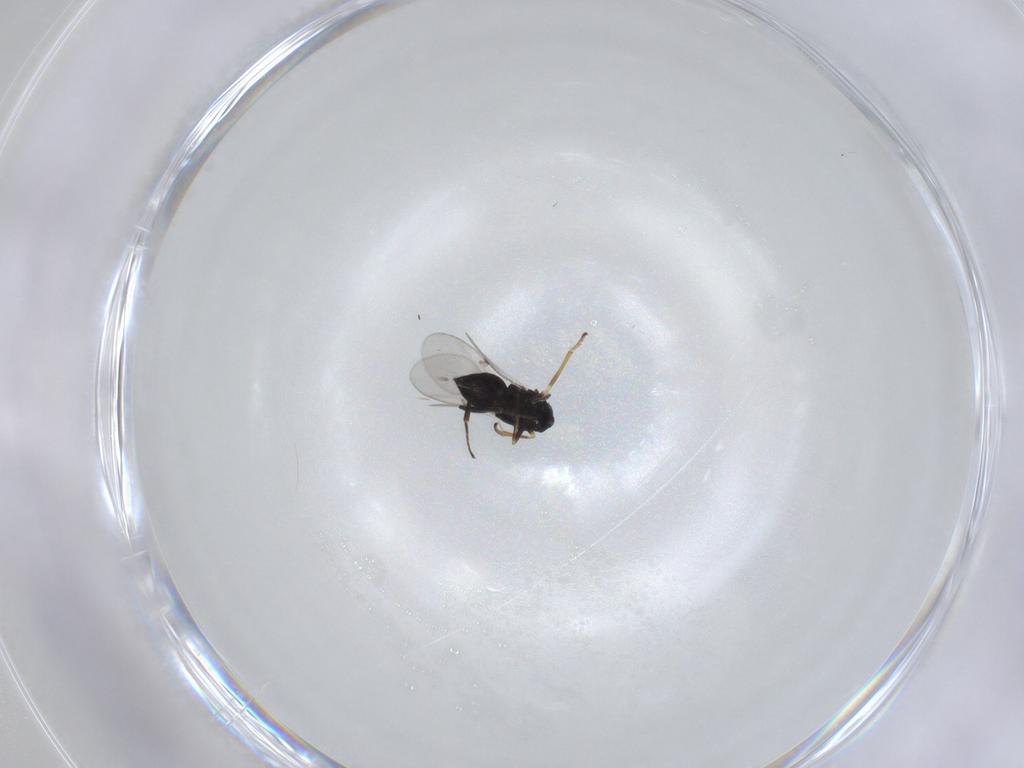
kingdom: Animalia
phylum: Arthropoda
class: Insecta
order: Hymenoptera
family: Encyrtidae
